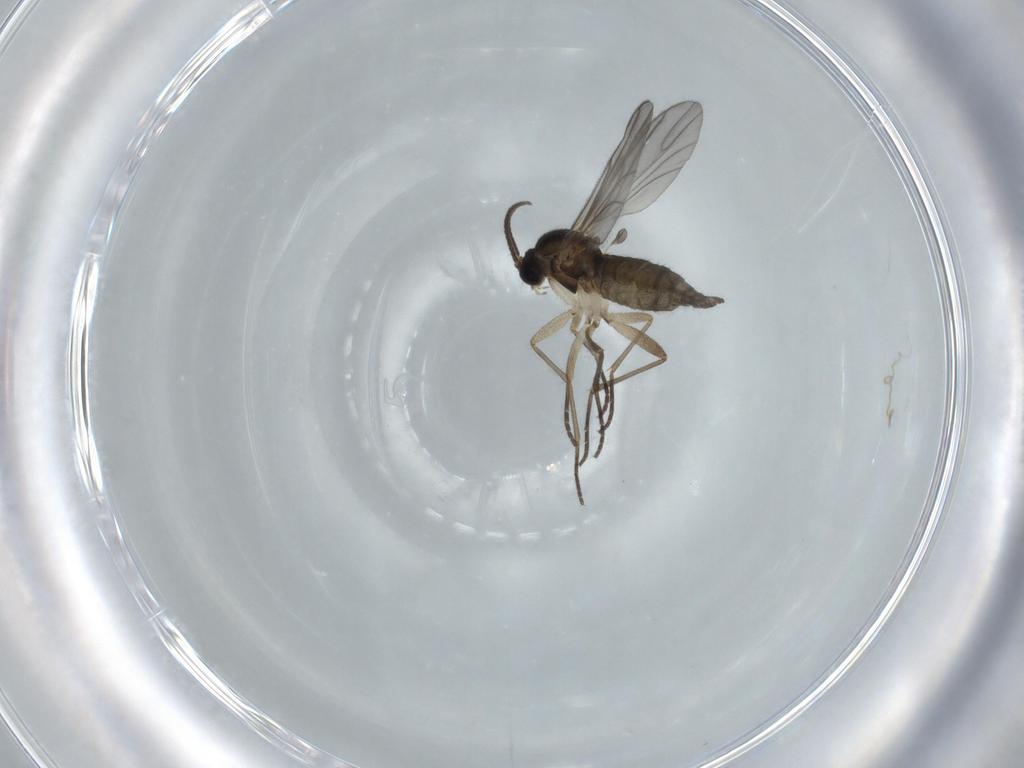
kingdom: Animalia
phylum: Arthropoda
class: Insecta
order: Diptera
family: Sciaridae
